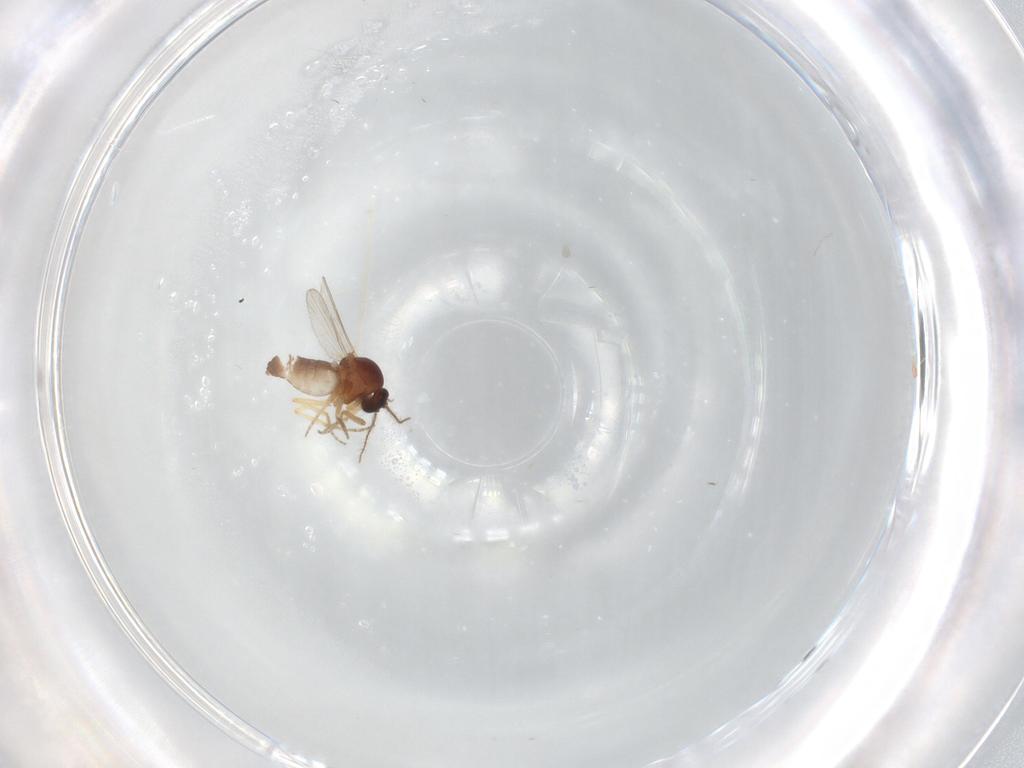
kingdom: Animalia
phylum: Arthropoda
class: Insecta
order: Diptera
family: Ceratopogonidae
